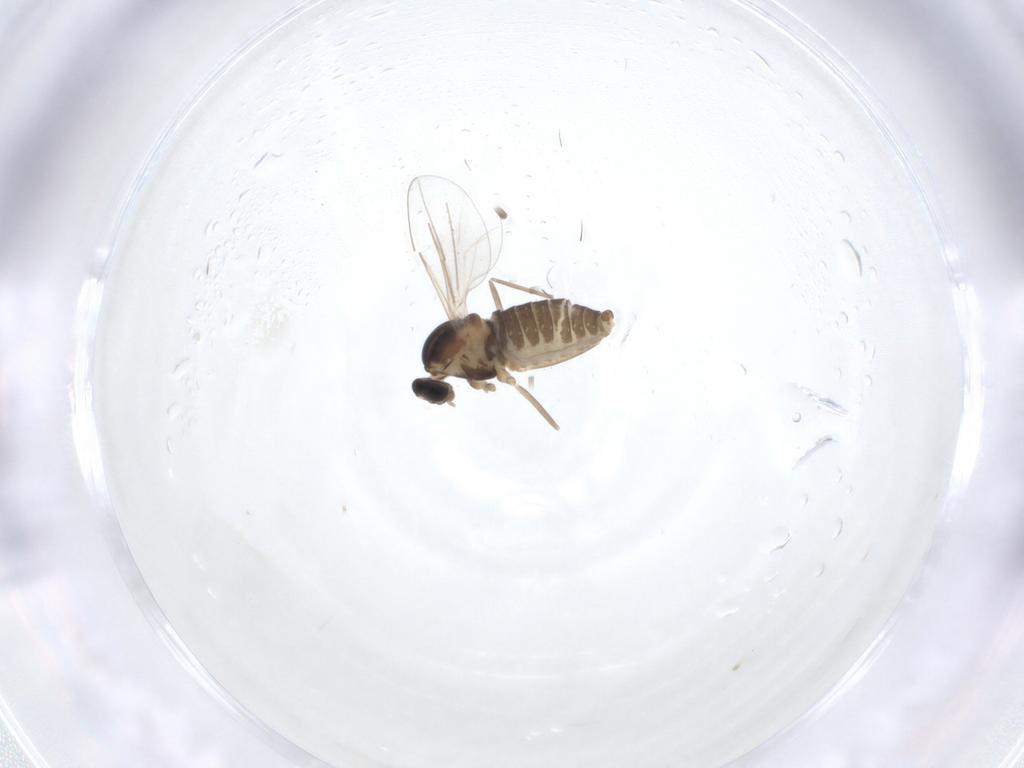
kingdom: Animalia
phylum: Arthropoda
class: Insecta
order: Diptera
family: Cecidomyiidae
